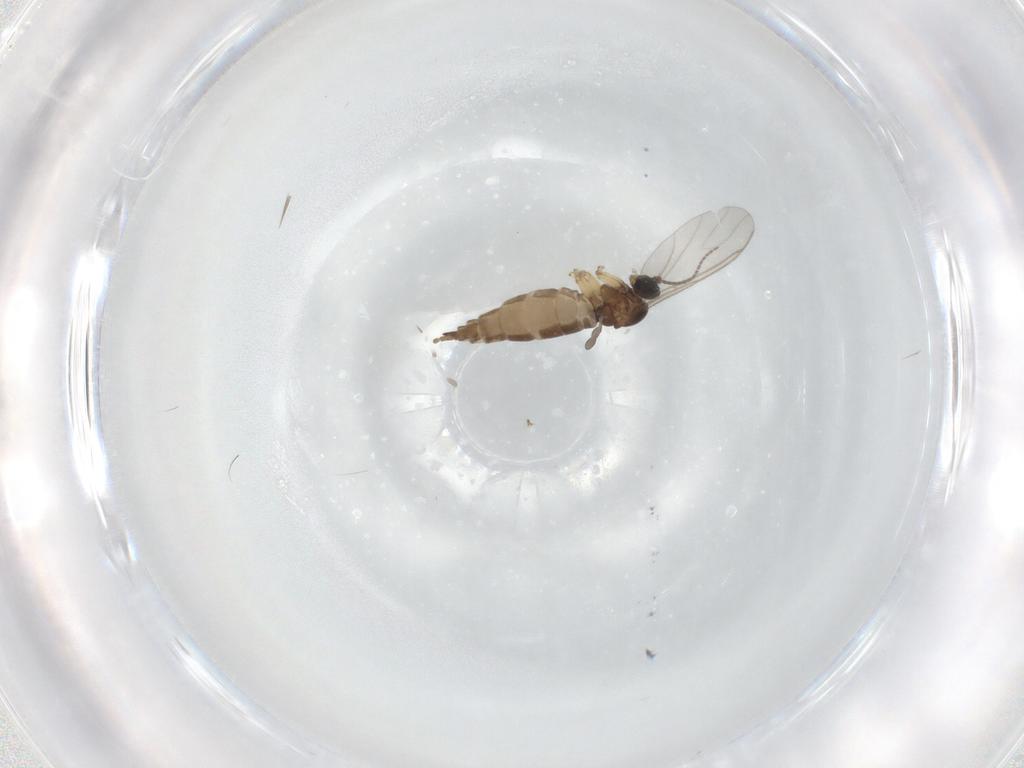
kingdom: Animalia
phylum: Arthropoda
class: Insecta
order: Diptera
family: Sciaridae
